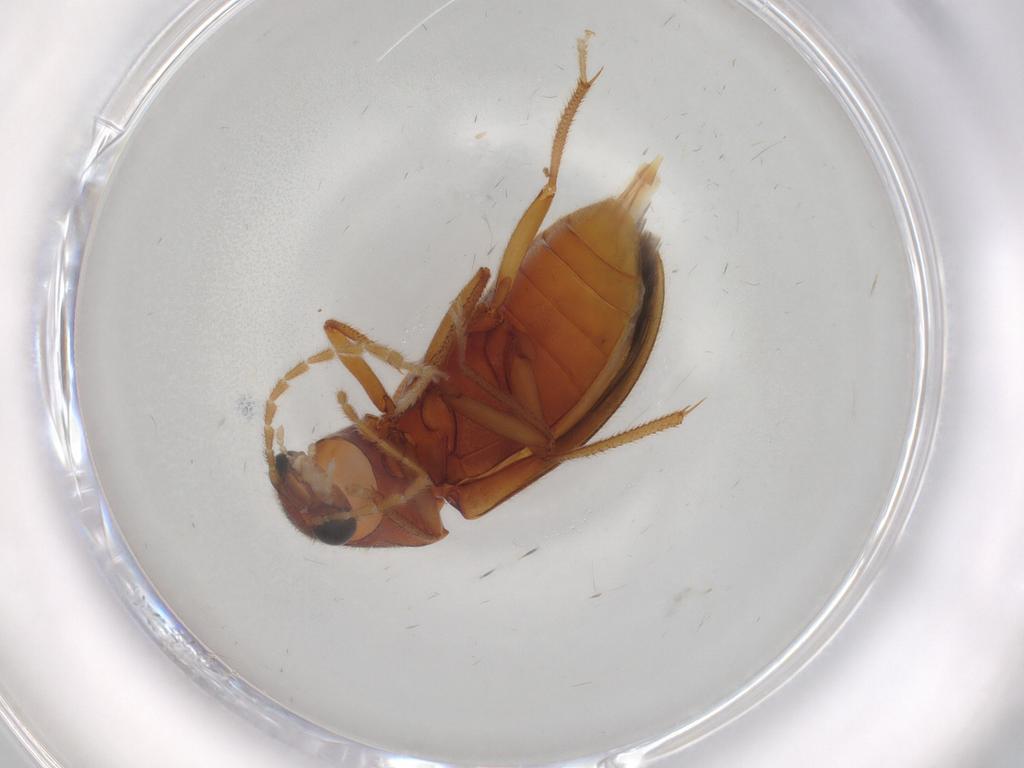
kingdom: Animalia
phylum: Arthropoda
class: Insecta
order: Coleoptera
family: Ptilodactylidae
